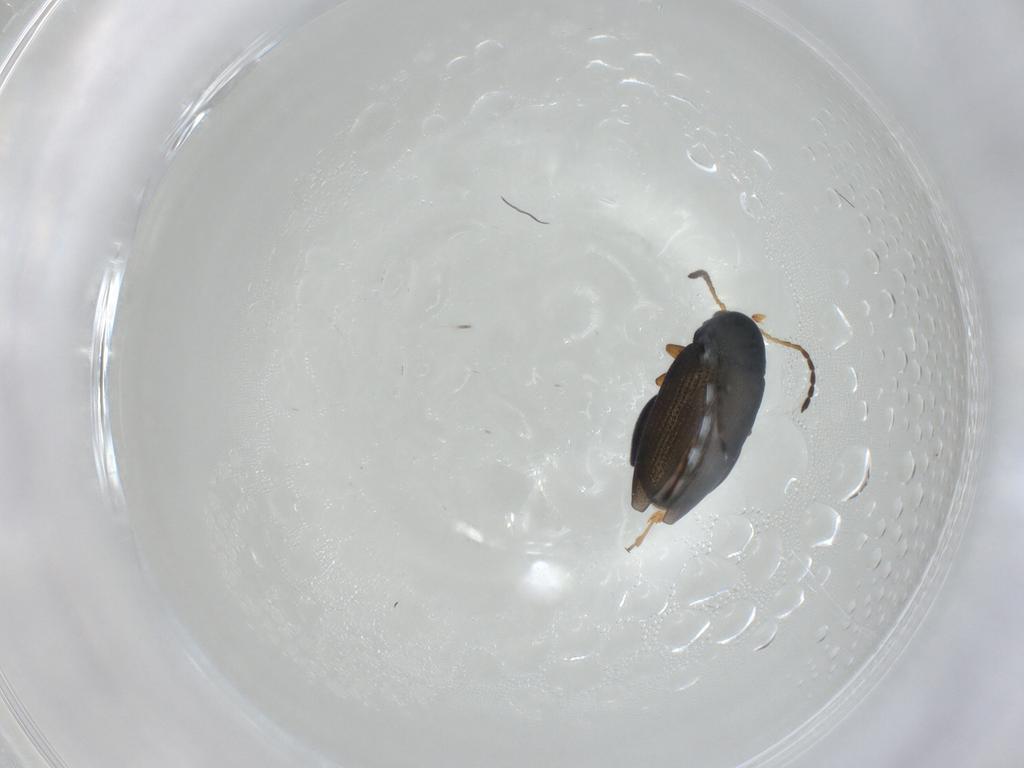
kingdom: Animalia
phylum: Arthropoda
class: Insecta
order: Coleoptera
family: Chrysomelidae
